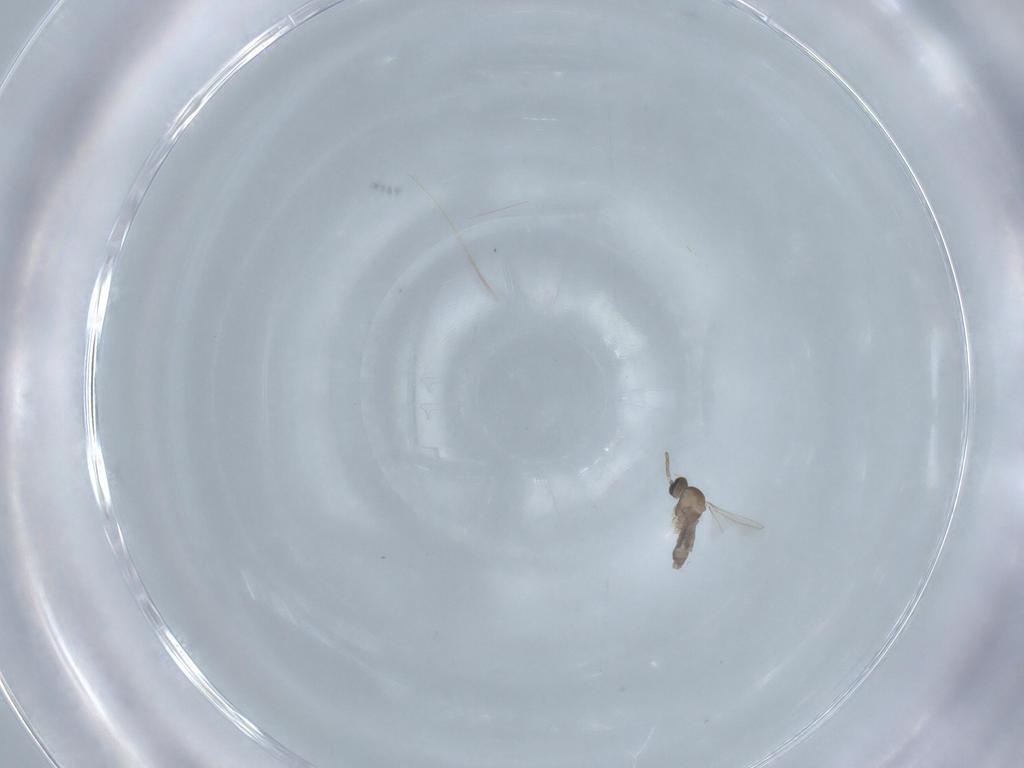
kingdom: Animalia
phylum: Arthropoda
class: Insecta
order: Diptera
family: Cecidomyiidae
